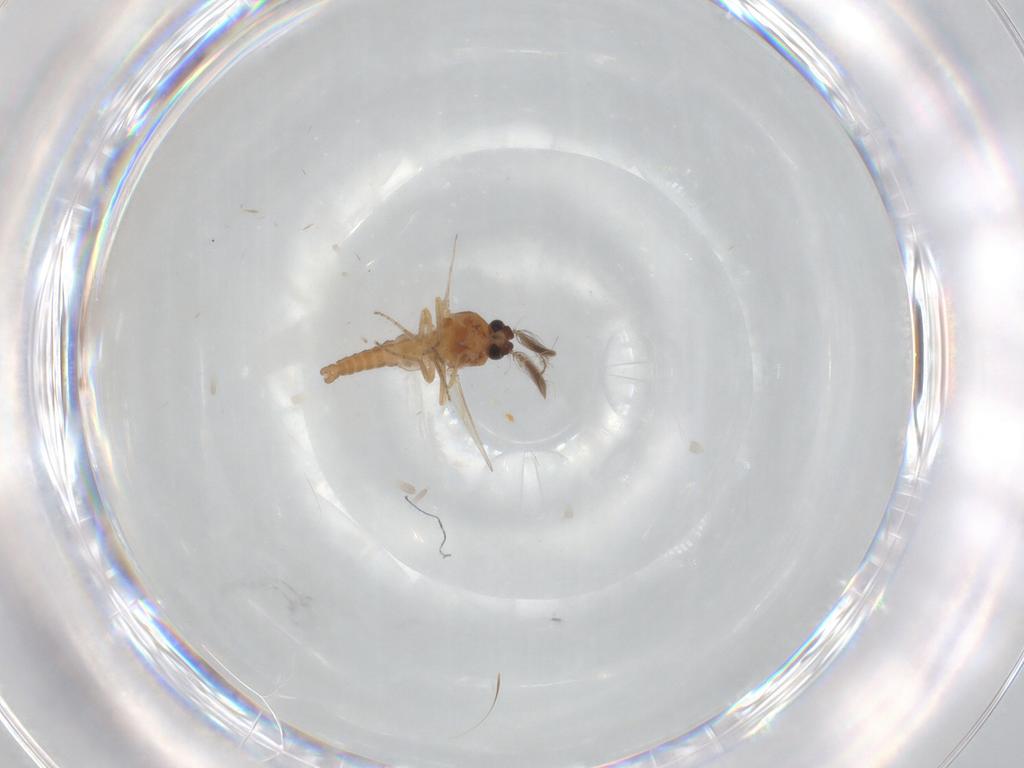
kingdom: Animalia
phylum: Arthropoda
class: Insecta
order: Diptera
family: Ceratopogonidae
